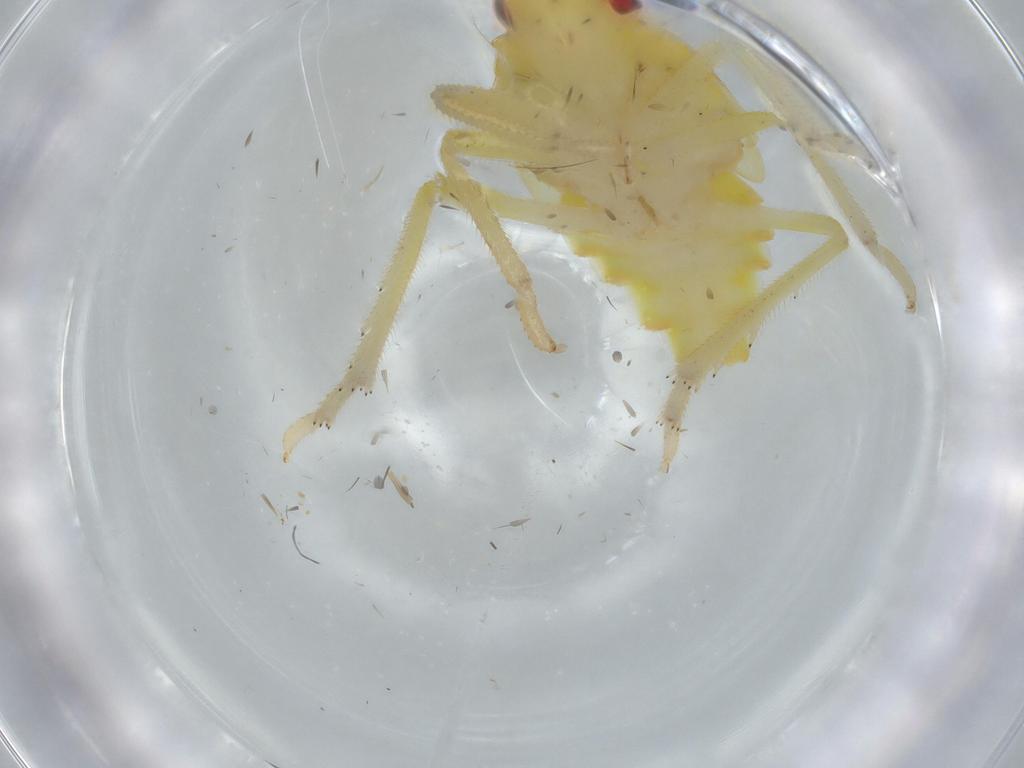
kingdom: Animalia
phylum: Arthropoda
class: Insecta
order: Hemiptera
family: Tropiduchidae
